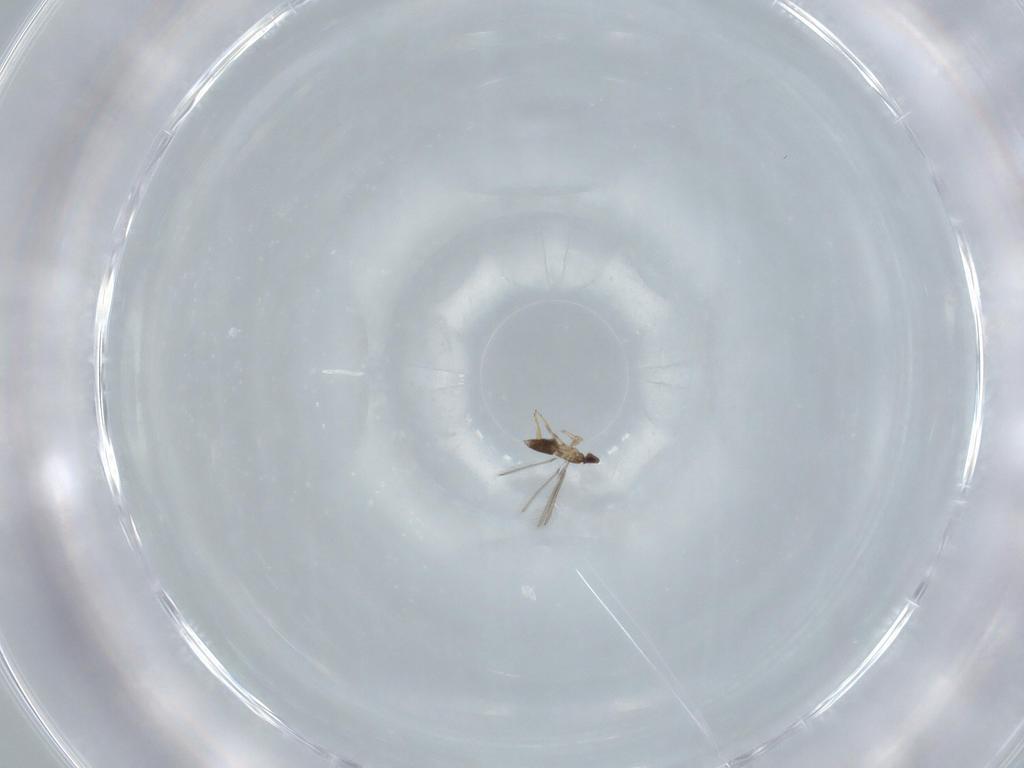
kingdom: Animalia
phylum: Arthropoda
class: Insecta
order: Hymenoptera
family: Mymaridae
